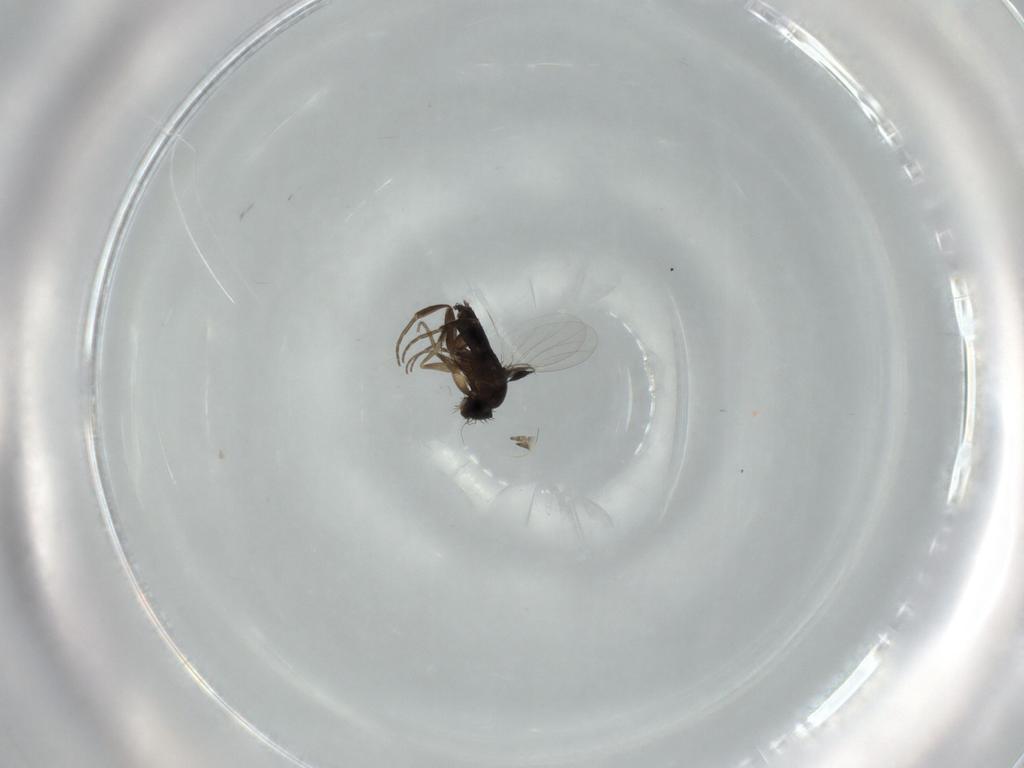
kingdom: Animalia
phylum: Arthropoda
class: Insecta
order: Diptera
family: Phoridae
